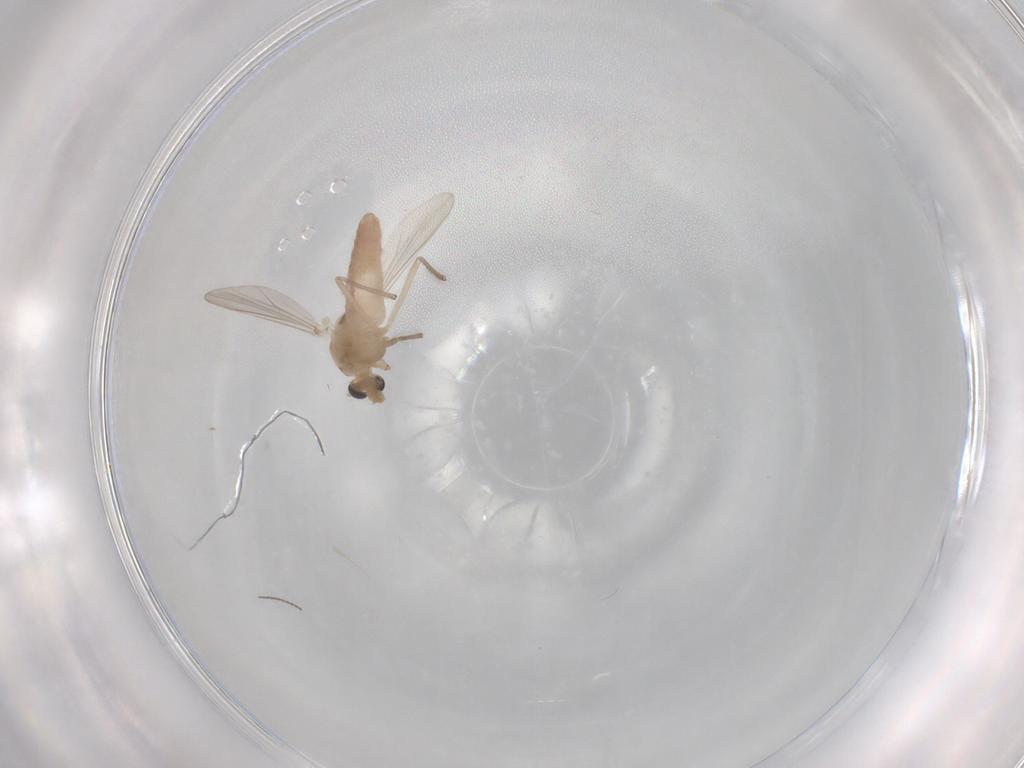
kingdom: Animalia
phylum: Arthropoda
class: Insecta
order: Diptera
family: Chironomidae
